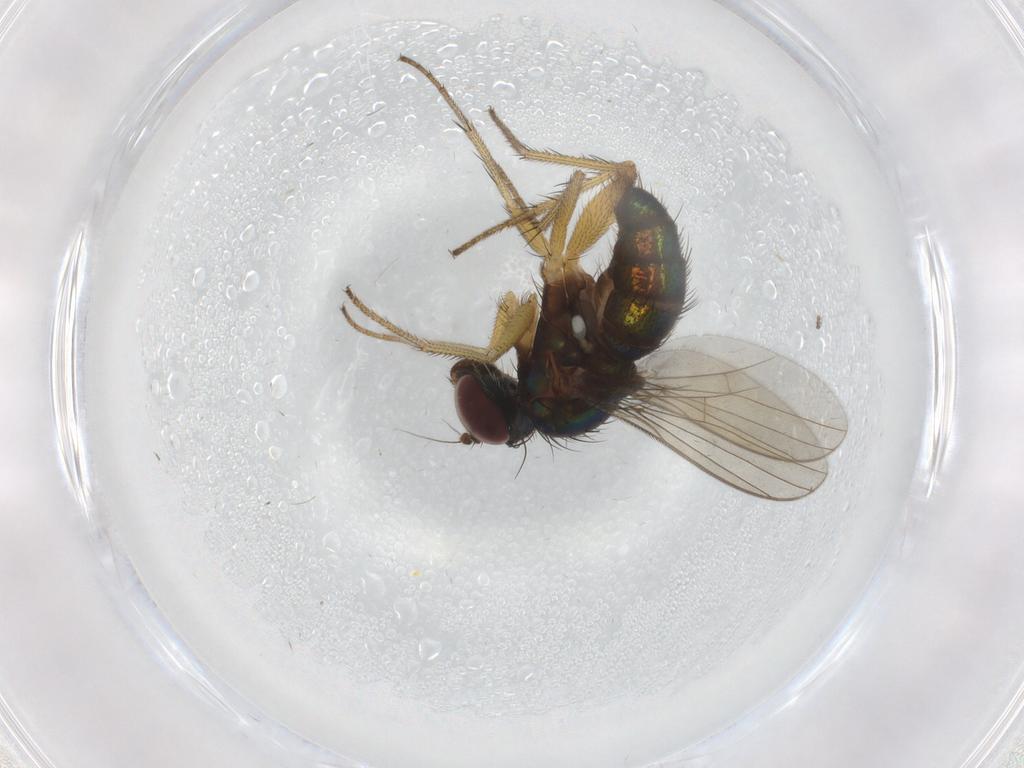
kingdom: Animalia
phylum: Arthropoda
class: Insecta
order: Diptera
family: Dolichopodidae
